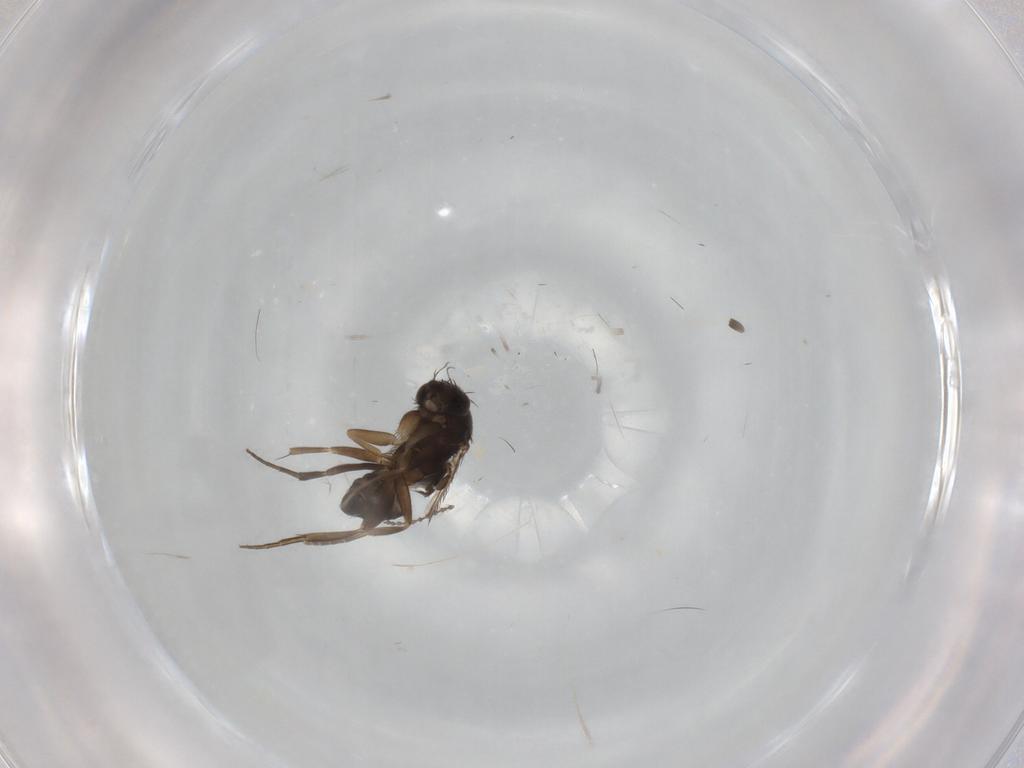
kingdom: Animalia
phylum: Arthropoda
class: Insecta
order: Diptera
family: Phoridae
